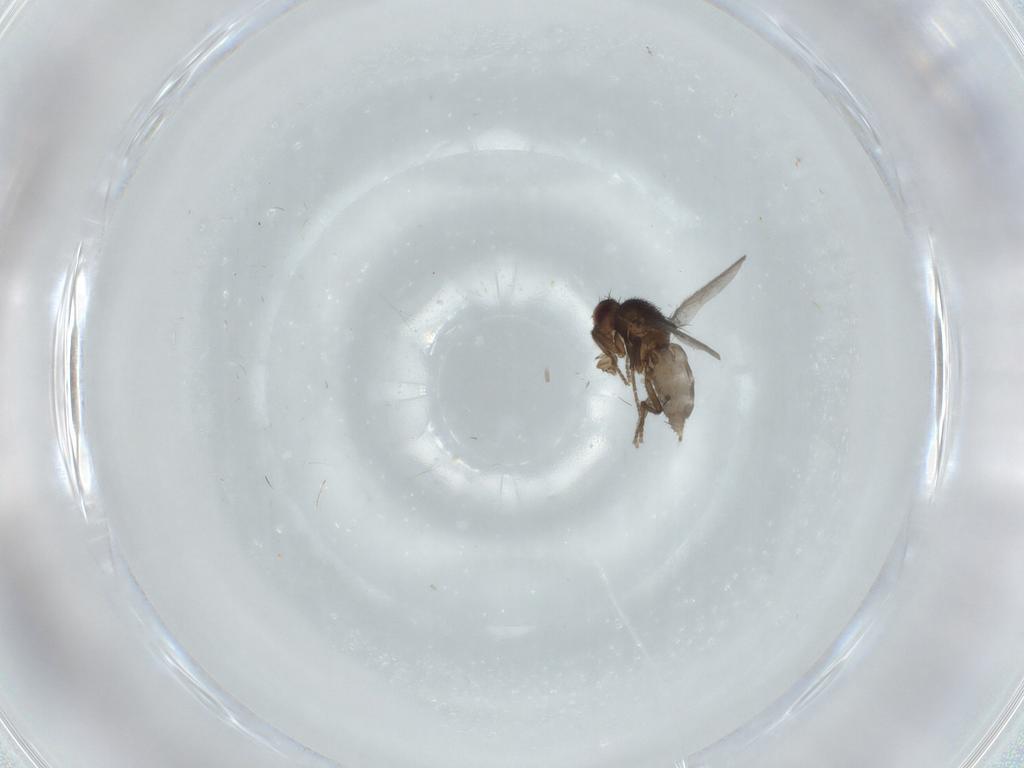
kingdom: Animalia
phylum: Arthropoda
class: Insecta
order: Diptera
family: Sphaeroceridae
